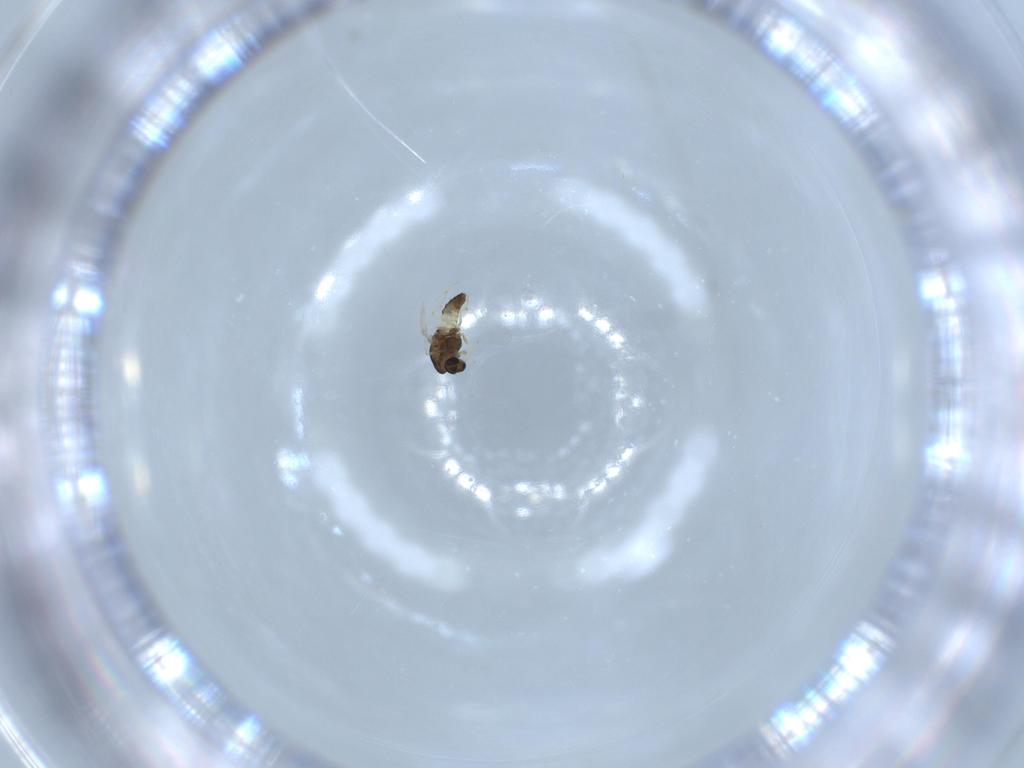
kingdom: Animalia
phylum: Arthropoda
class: Insecta
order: Diptera
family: Chironomidae
